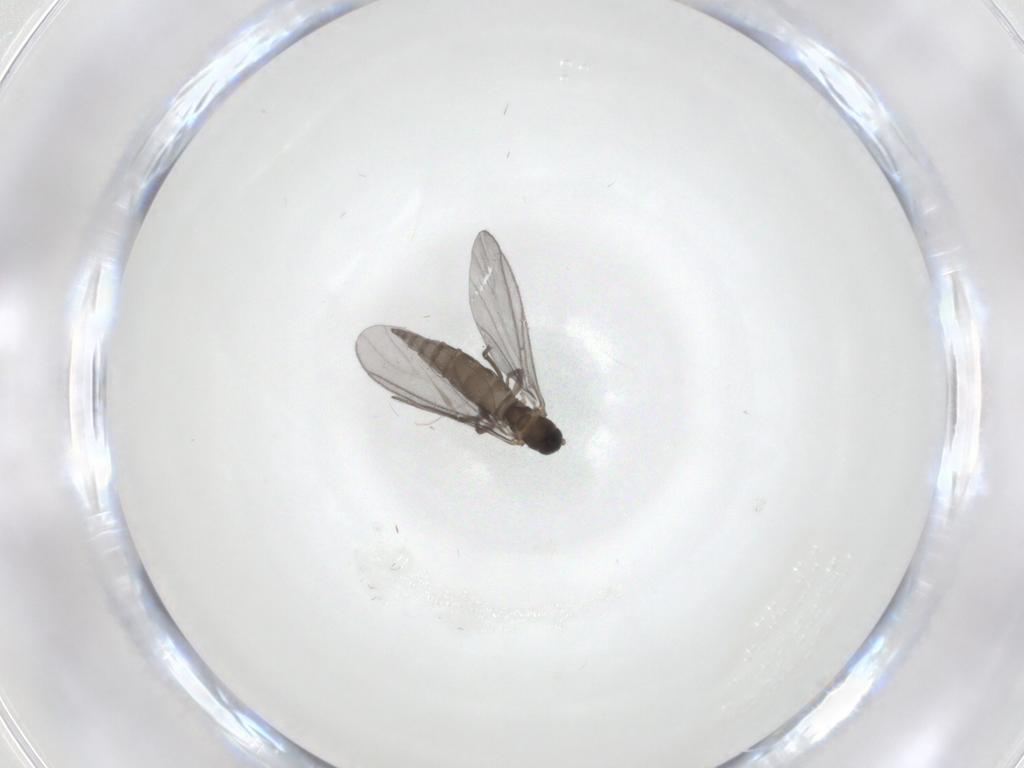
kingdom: Animalia
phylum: Arthropoda
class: Insecta
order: Diptera
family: Sciaridae
